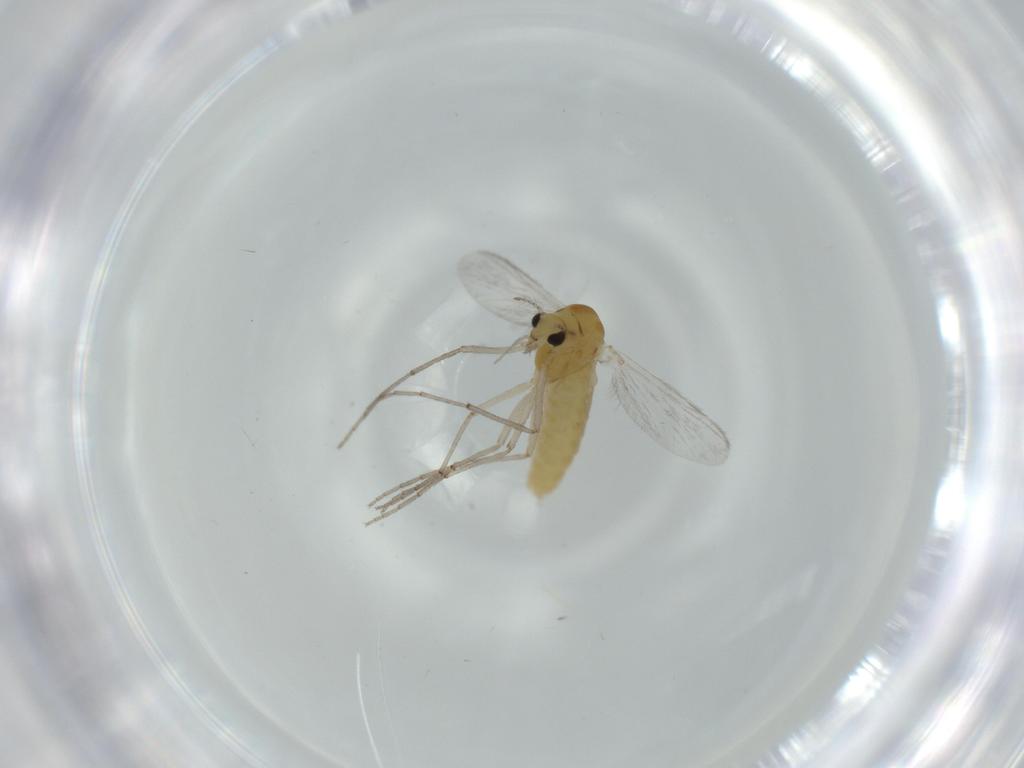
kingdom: Animalia
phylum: Arthropoda
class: Insecta
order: Diptera
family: Chironomidae
